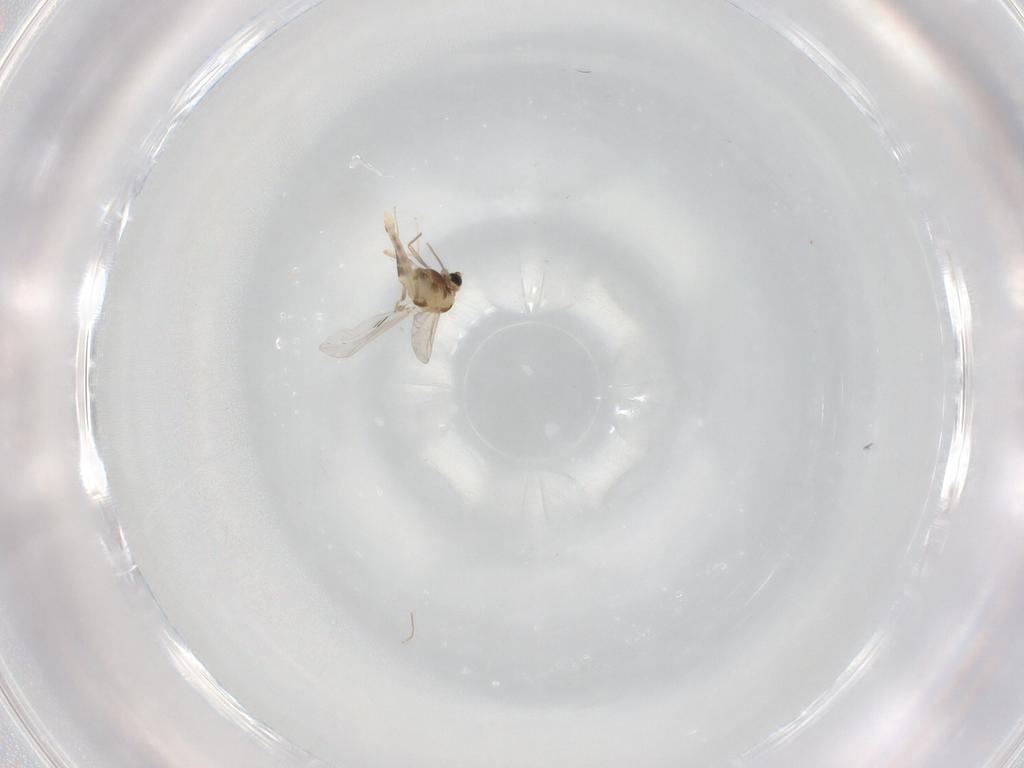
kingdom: Animalia
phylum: Arthropoda
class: Insecta
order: Diptera
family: Chironomidae
